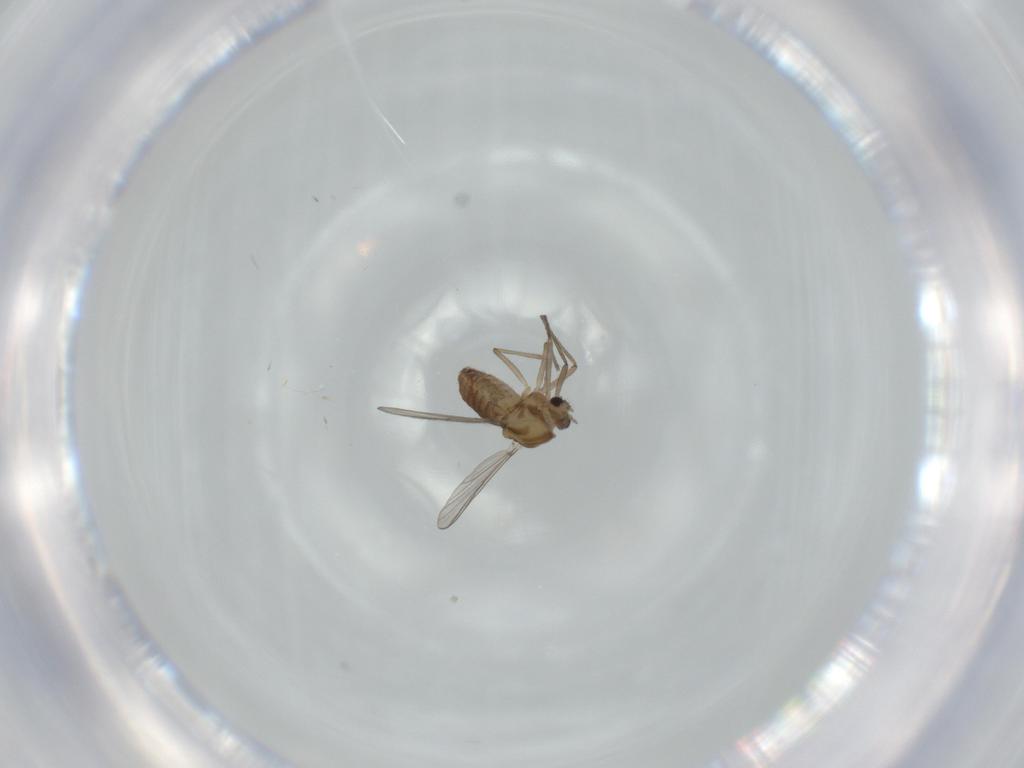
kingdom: Animalia
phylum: Arthropoda
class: Insecta
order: Diptera
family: Chironomidae
